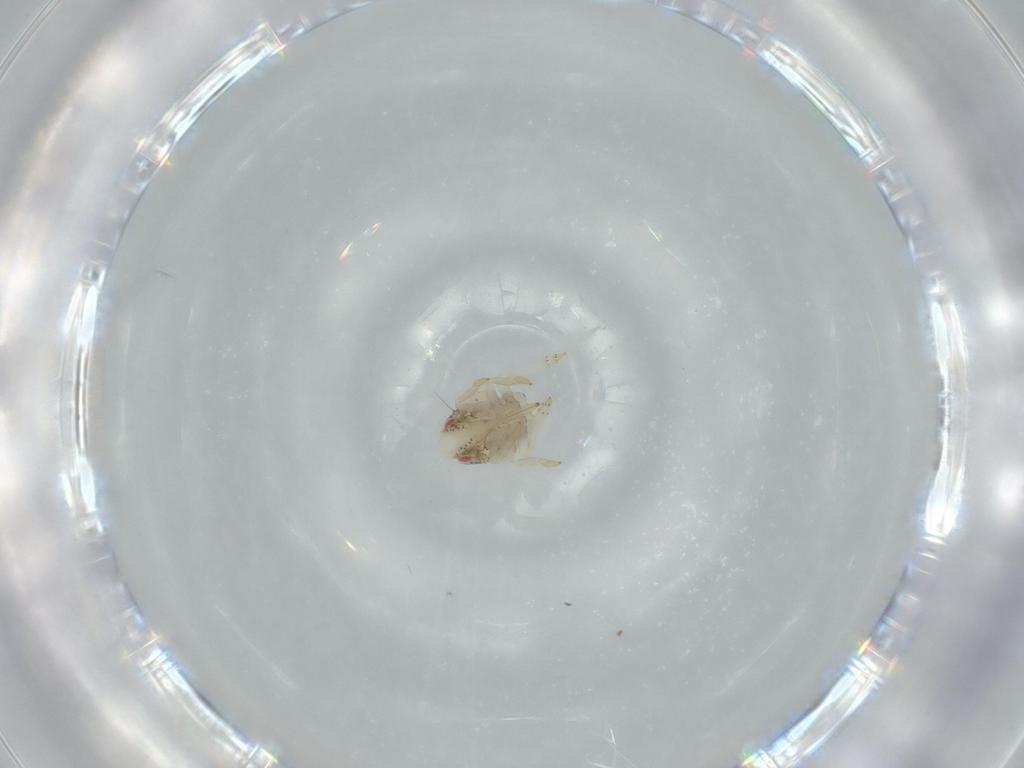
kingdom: Animalia
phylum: Arthropoda
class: Insecta
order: Hemiptera
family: Acanaloniidae
